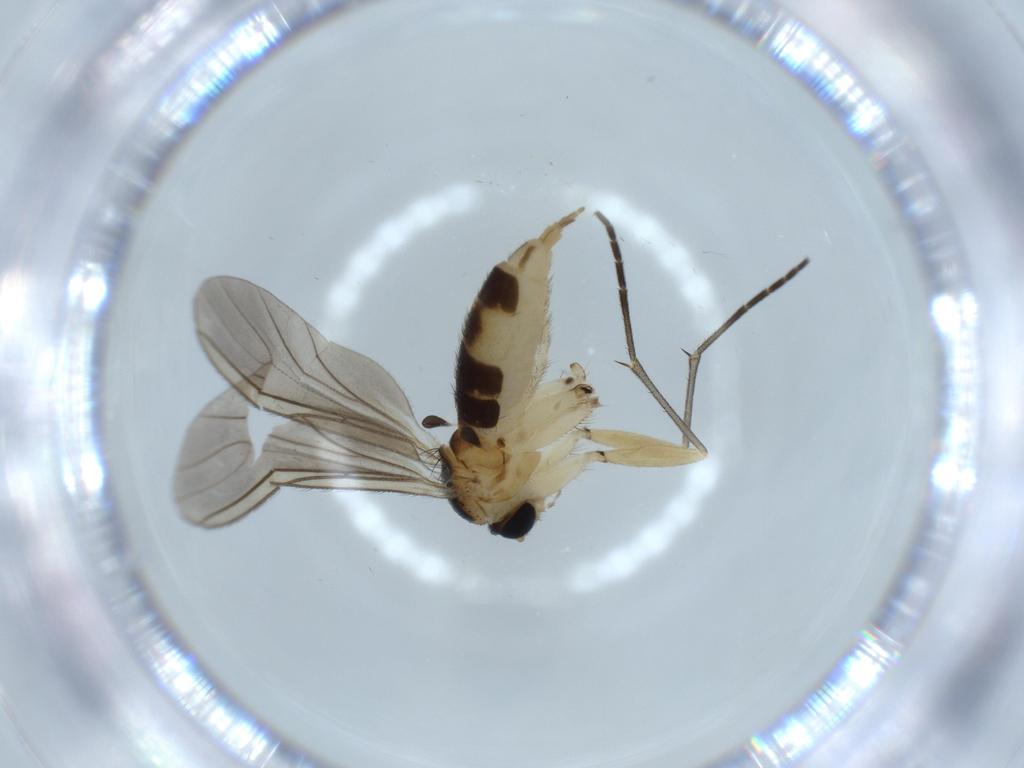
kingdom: Animalia
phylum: Arthropoda
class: Insecta
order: Diptera
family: Sciaridae
